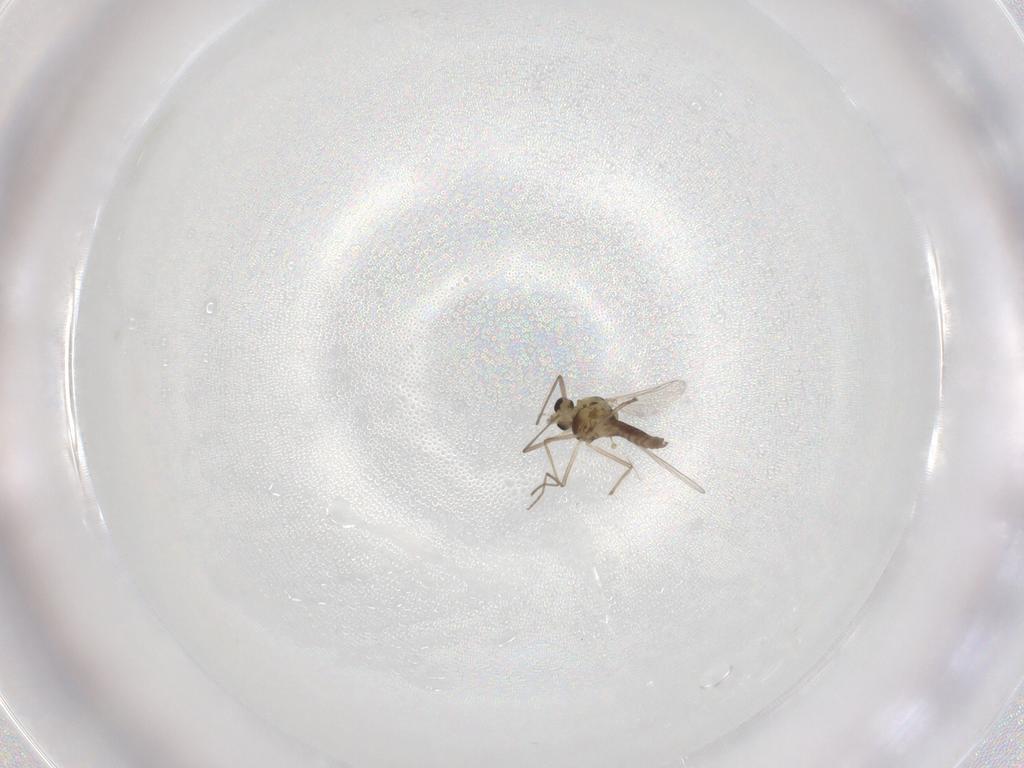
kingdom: Animalia
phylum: Arthropoda
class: Insecta
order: Diptera
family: Chironomidae
